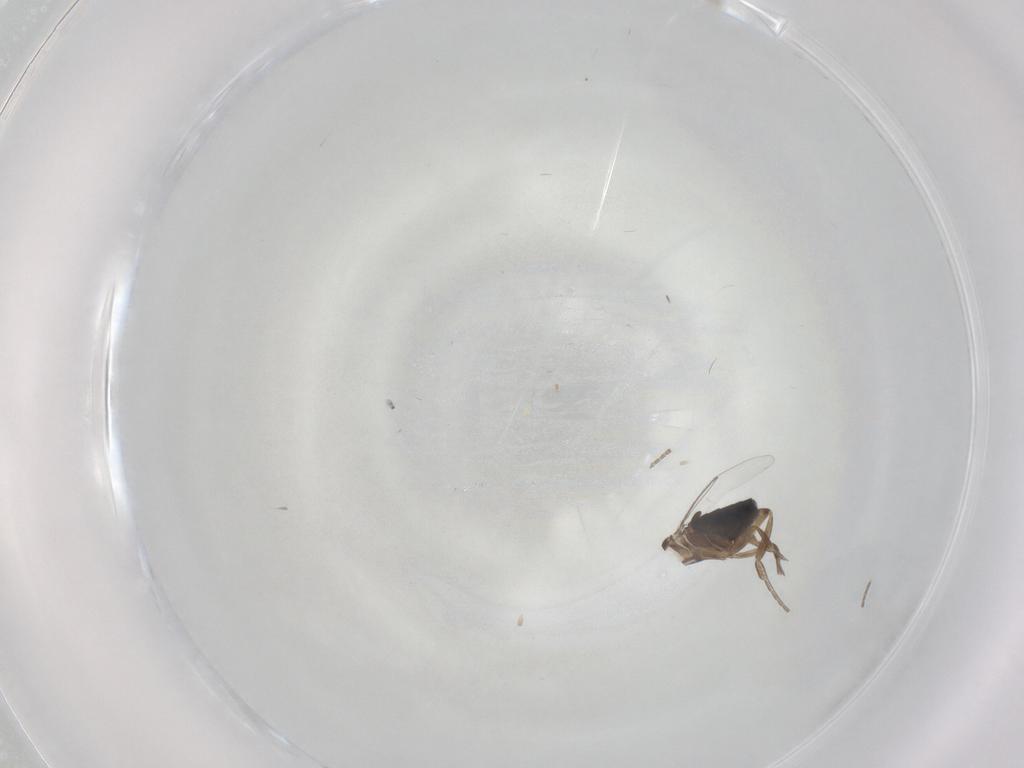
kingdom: Animalia
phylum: Arthropoda
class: Insecta
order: Diptera
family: Phoridae
